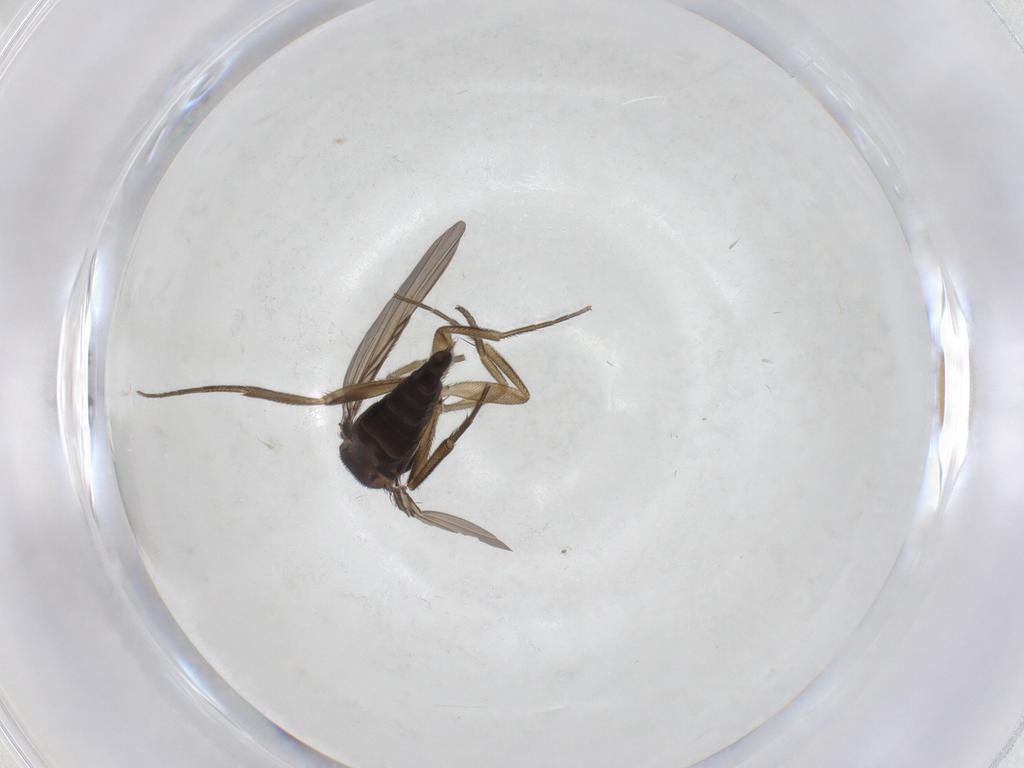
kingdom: Animalia
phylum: Arthropoda
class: Insecta
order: Diptera
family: Phoridae
